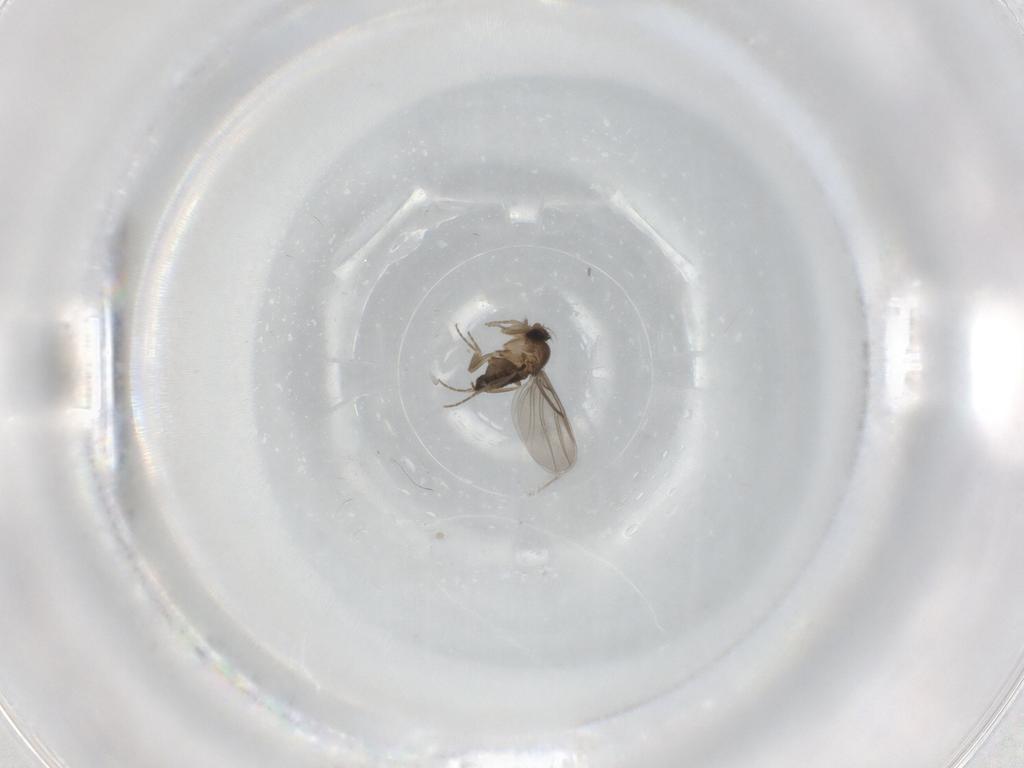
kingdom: Animalia
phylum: Arthropoda
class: Insecta
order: Diptera
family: Phoridae
